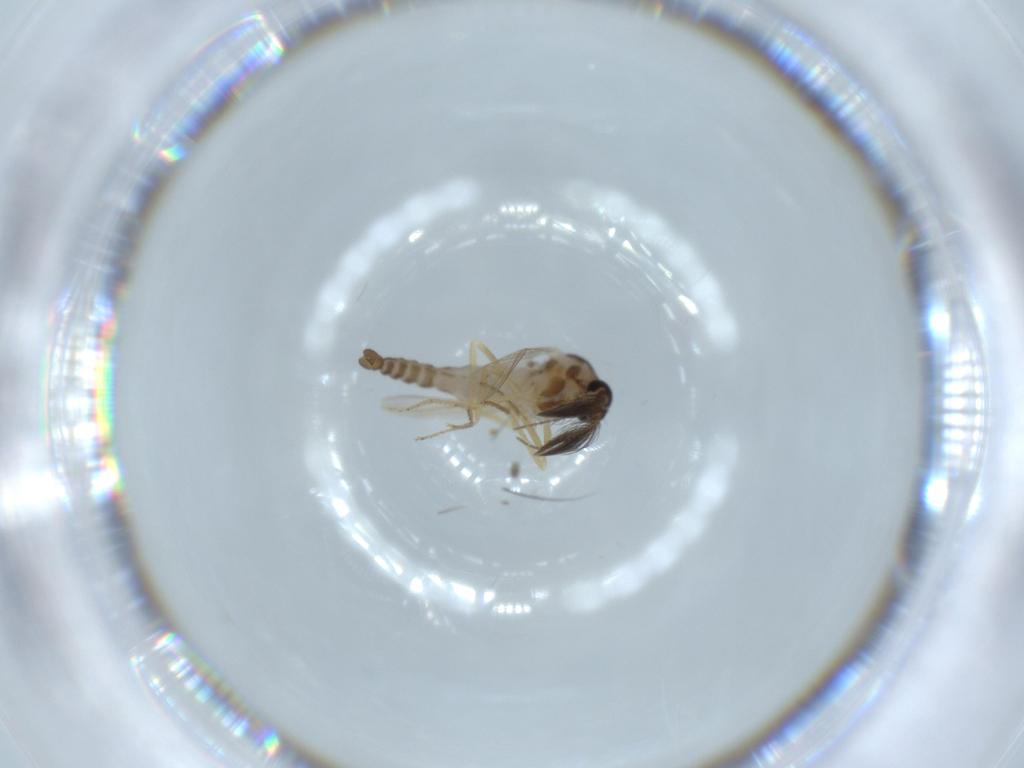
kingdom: Animalia
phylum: Arthropoda
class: Insecta
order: Diptera
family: Ceratopogonidae
